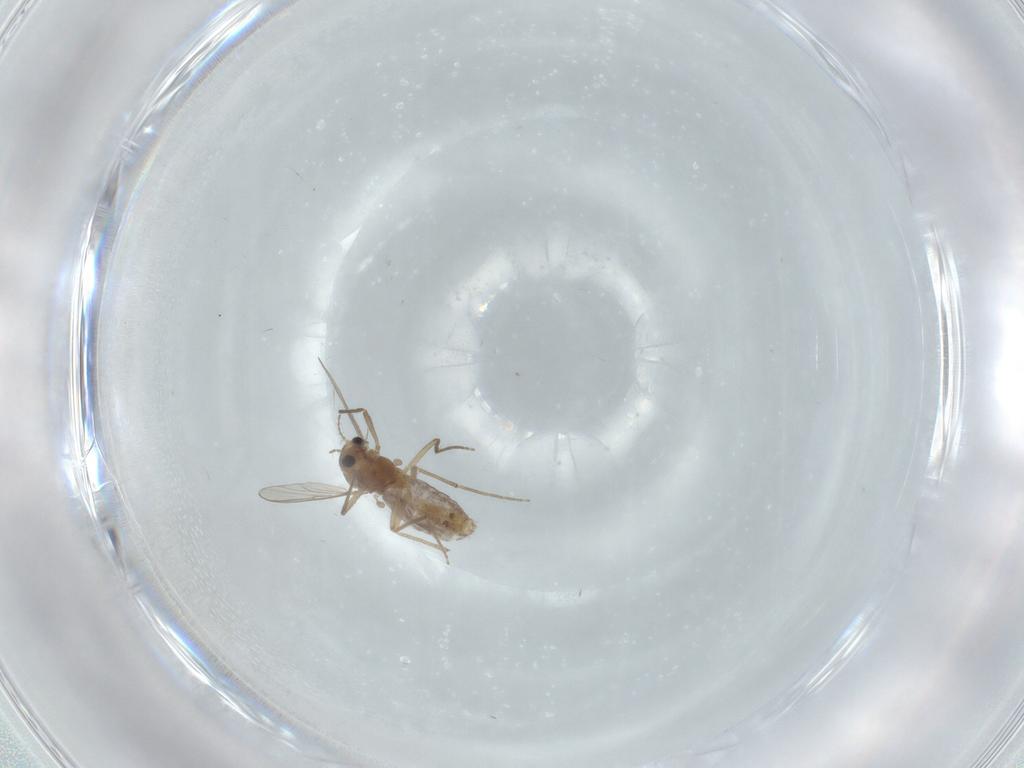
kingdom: Animalia
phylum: Arthropoda
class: Insecta
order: Diptera
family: Chironomidae
